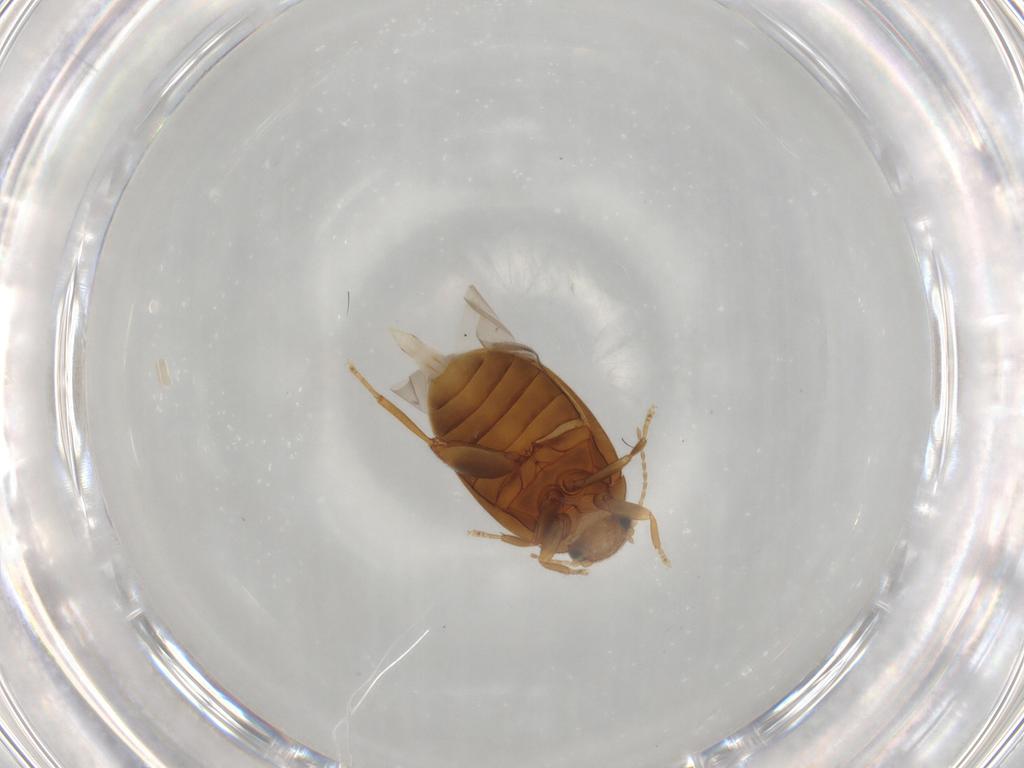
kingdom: Animalia
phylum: Arthropoda
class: Insecta
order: Coleoptera
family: Scirtidae
